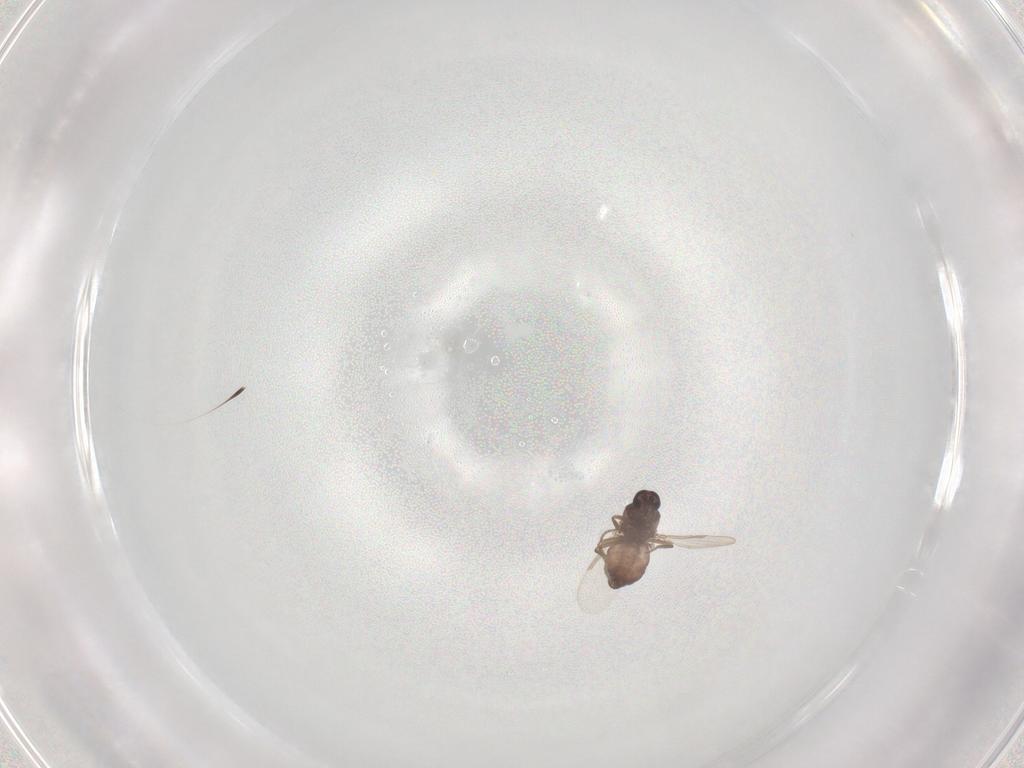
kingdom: Animalia
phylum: Arthropoda
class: Insecta
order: Diptera
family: Ceratopogonidae
